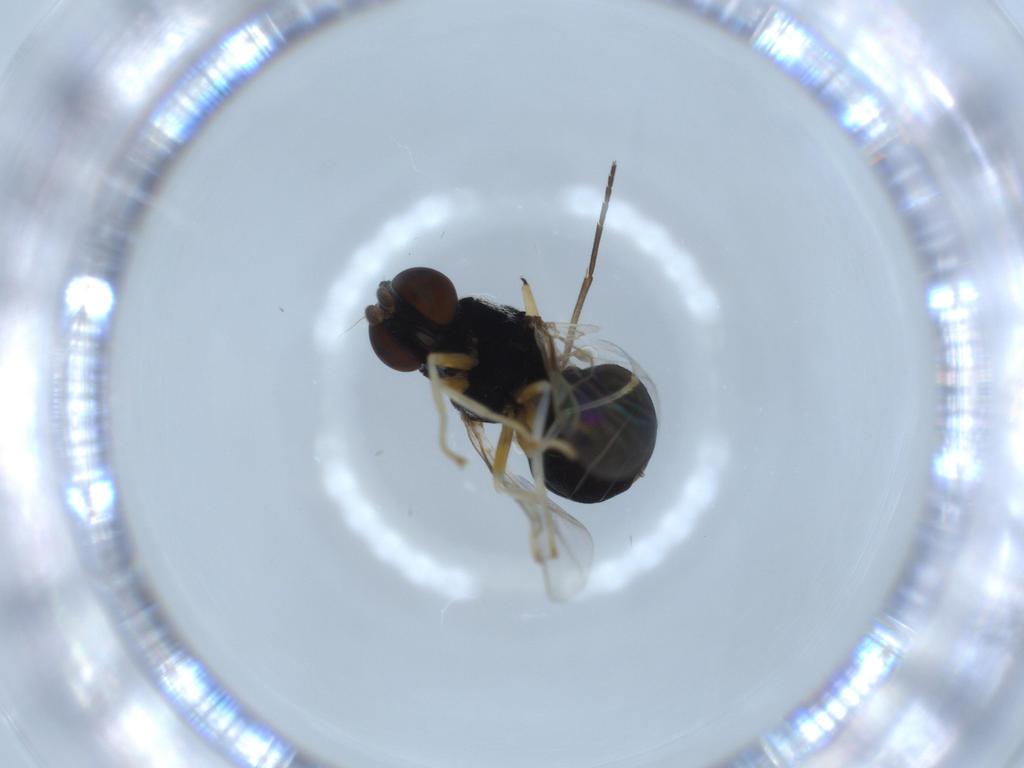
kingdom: Animalia
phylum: Arthropoda
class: Insecta
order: Diptera
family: Stratiomyidae
